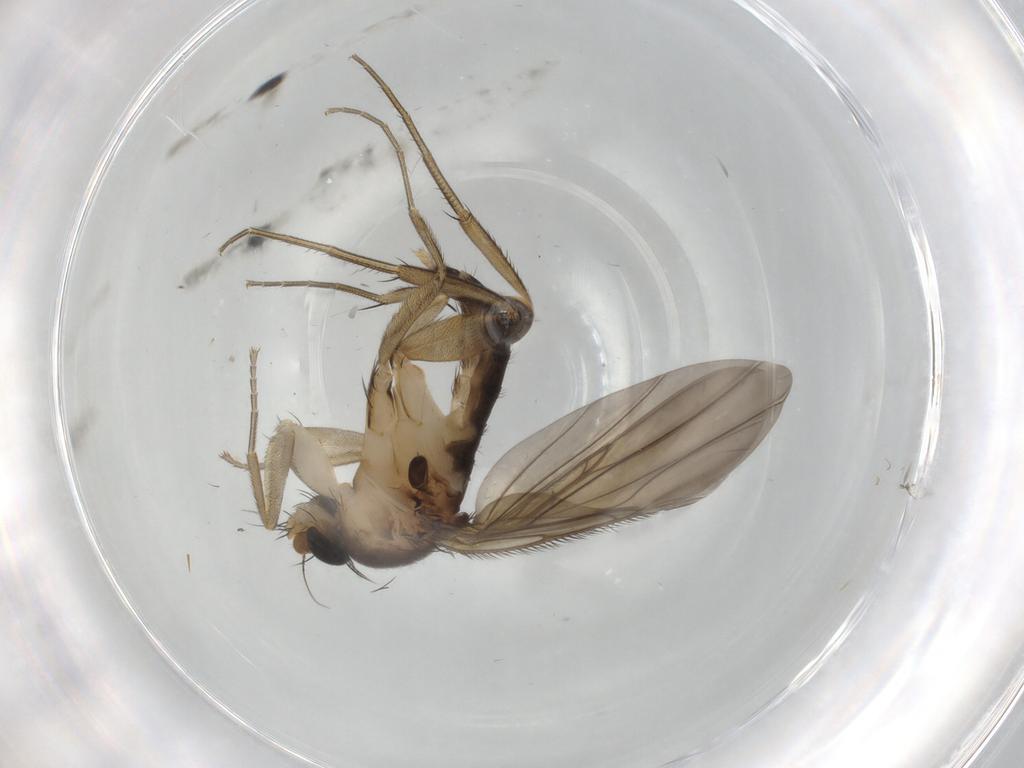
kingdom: Animalia
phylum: Arthropoda
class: Insecta
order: Diptera
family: Phoridae
